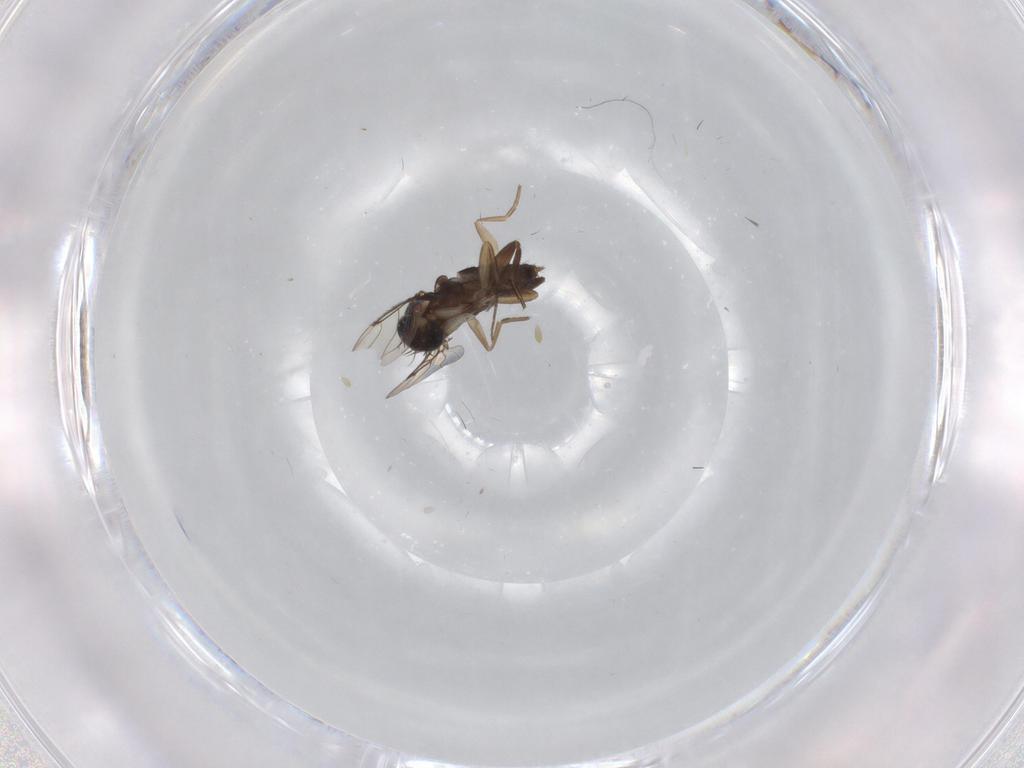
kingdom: Animalia
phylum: Arthropoda
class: Insecta
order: Diptera
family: Phoridae
